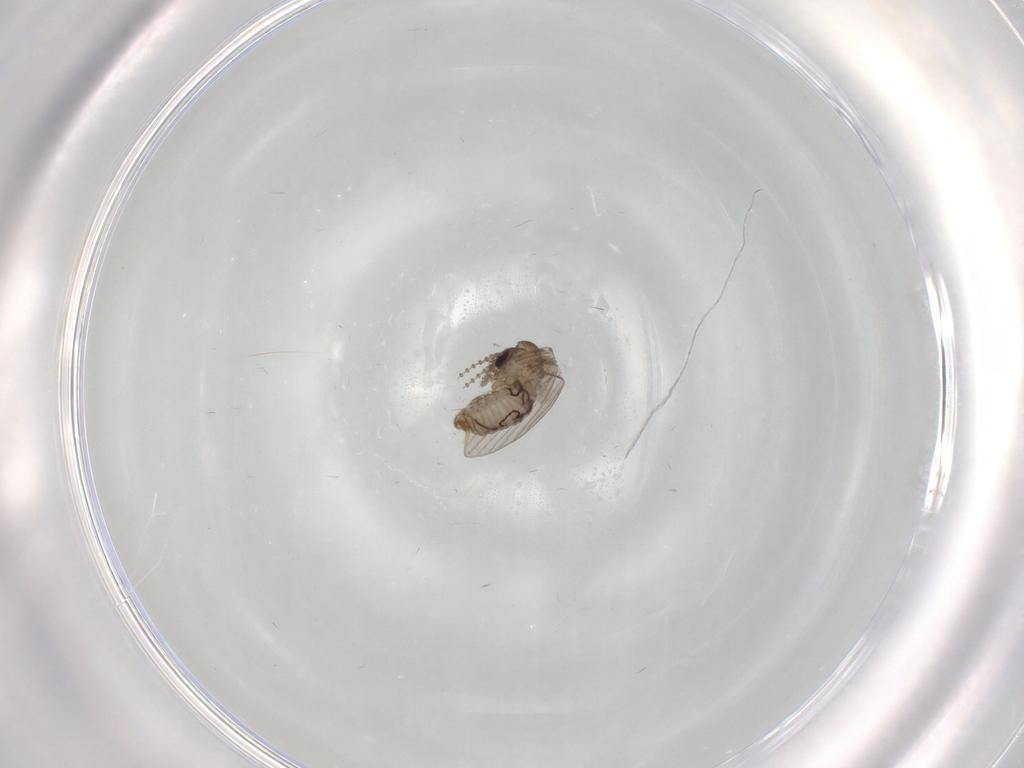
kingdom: Animalia
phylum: Arthropoda
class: Insecta
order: Diptera
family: Psychodidae
